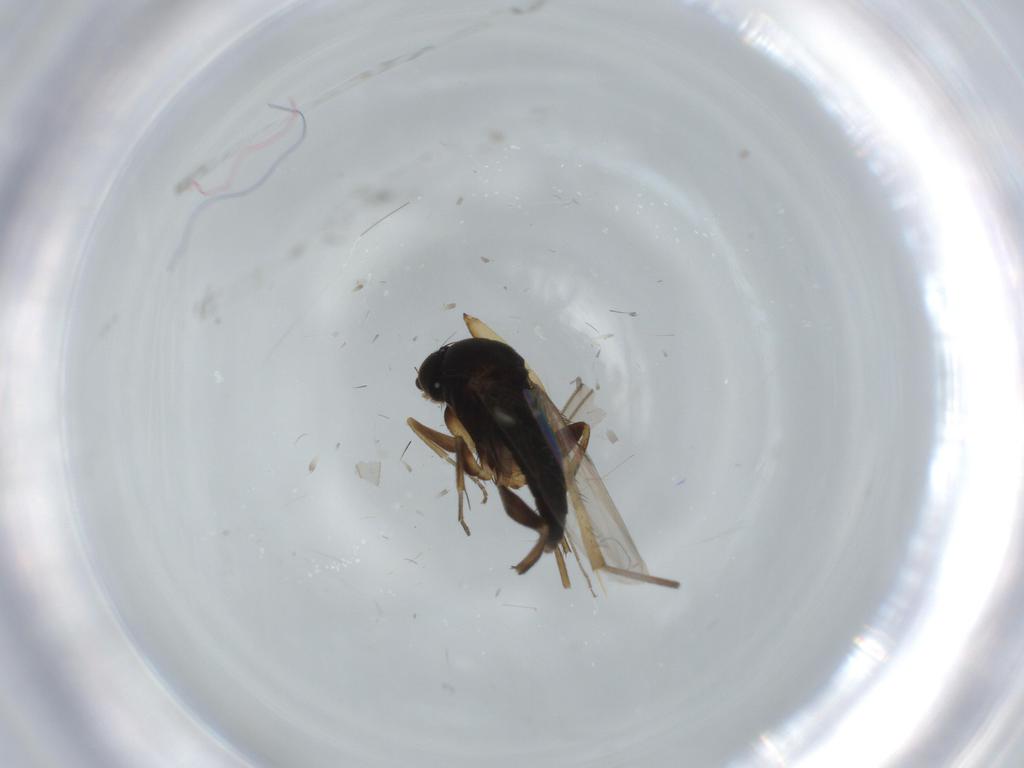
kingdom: Animalia
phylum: Arthropoda
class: Insecta
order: Diptera
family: Phoridae
